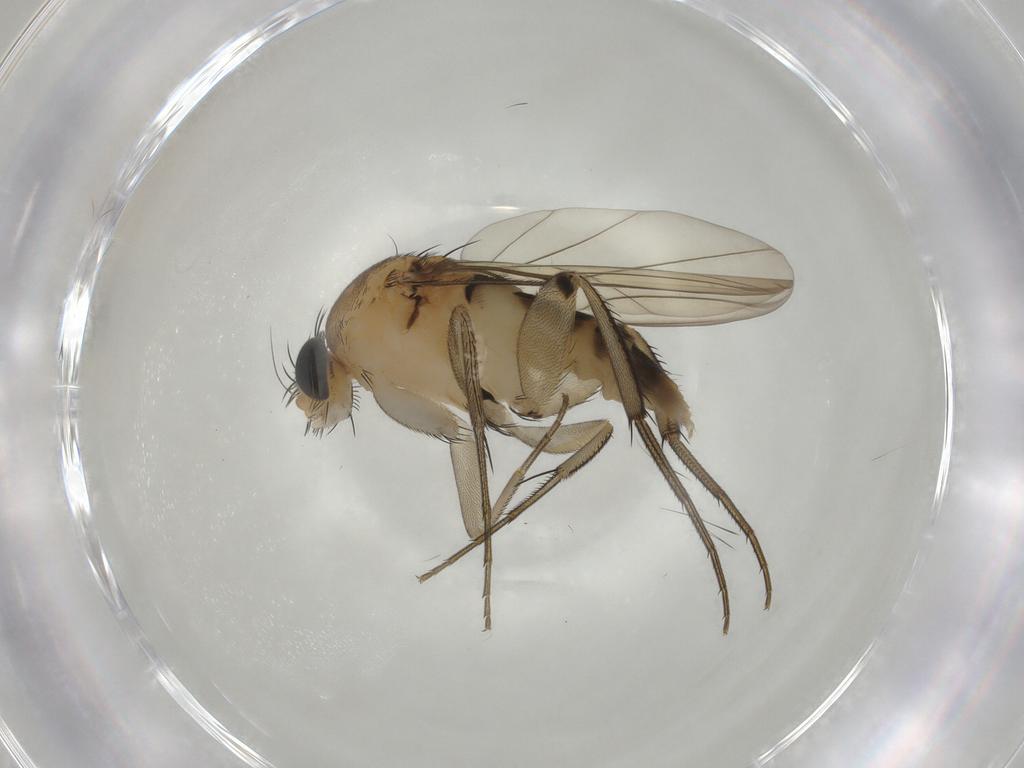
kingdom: Animalia
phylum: Arthropoda
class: Insecta
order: Diptera
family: Phoridae
